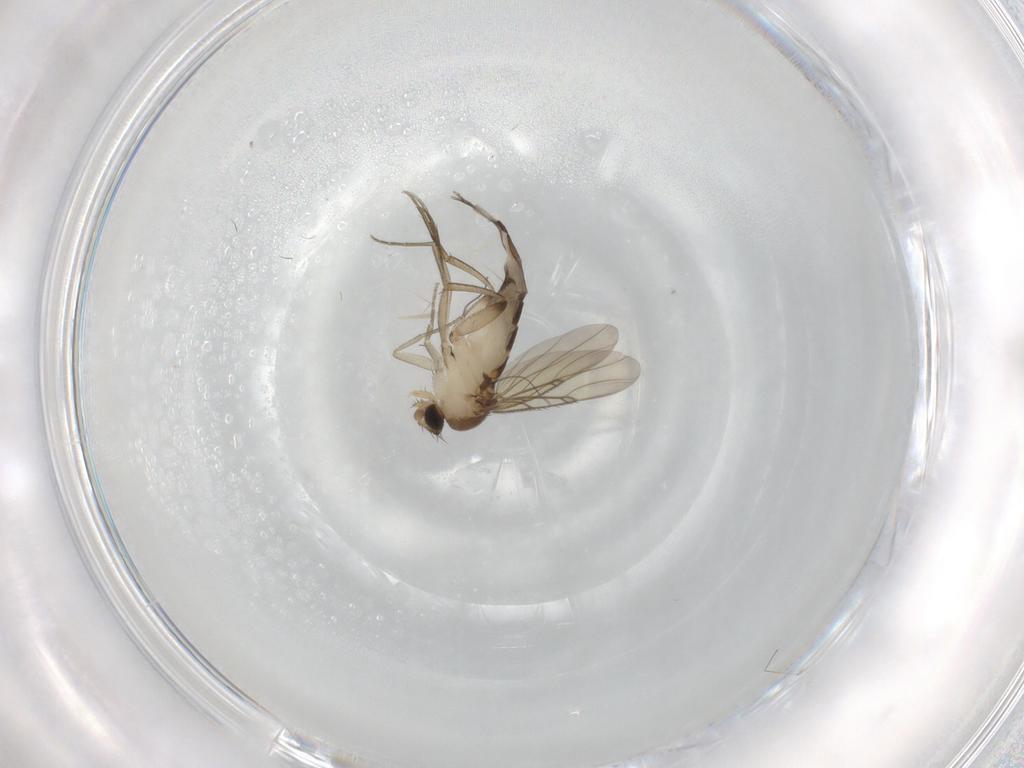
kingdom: Animalia
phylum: Arthropoda
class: Insecta
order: Diptera
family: Phoridae
